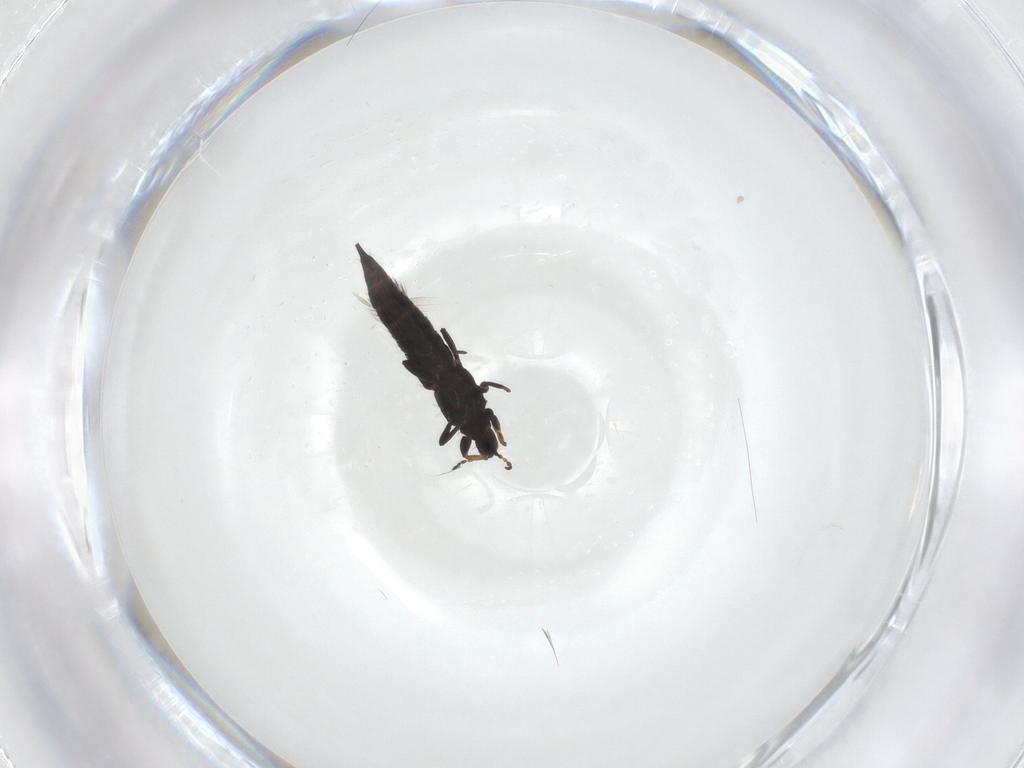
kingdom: Animalia
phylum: Arthropoda
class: Insecta
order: Thysanoptera
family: Phlaeothripidae
